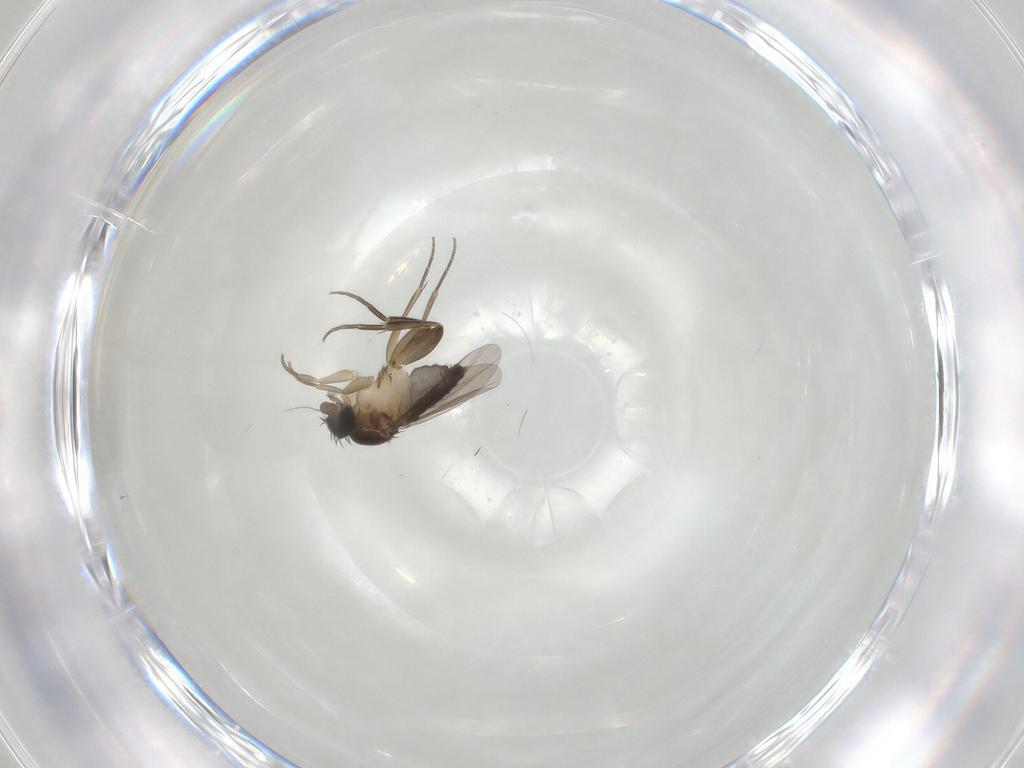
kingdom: Animalia
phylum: Arthropoda
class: Insecta
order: Diptera
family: Phoridae
